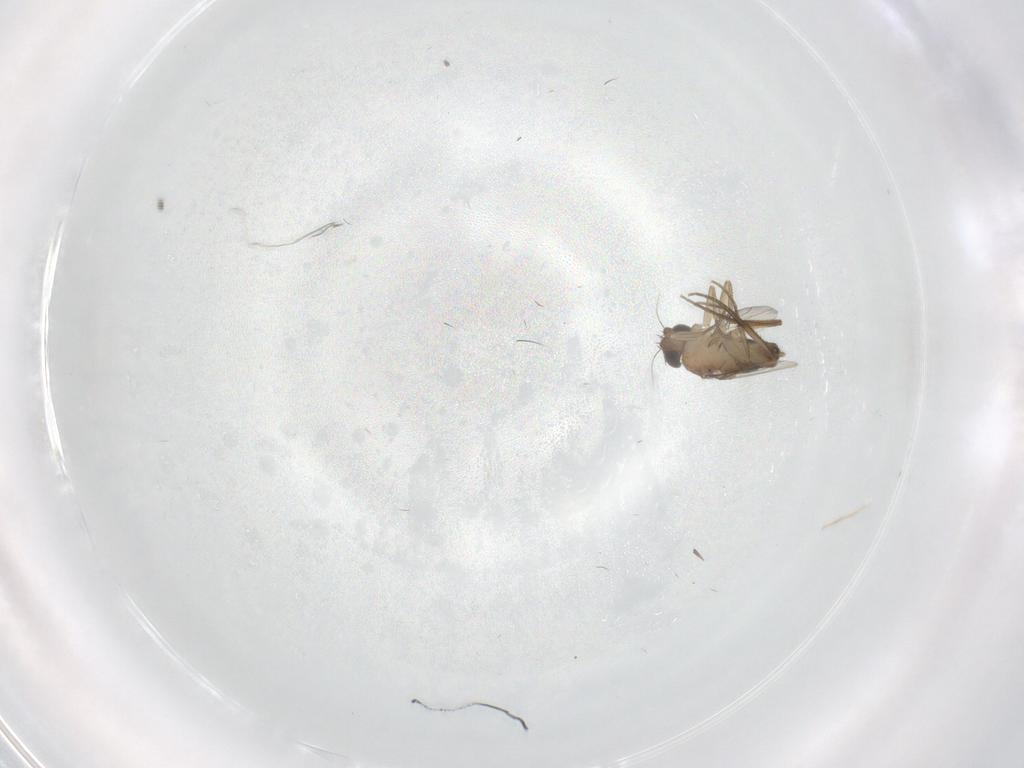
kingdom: Animalia
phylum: Arthropoda
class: Insecta
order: Diptera
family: Phoridae
